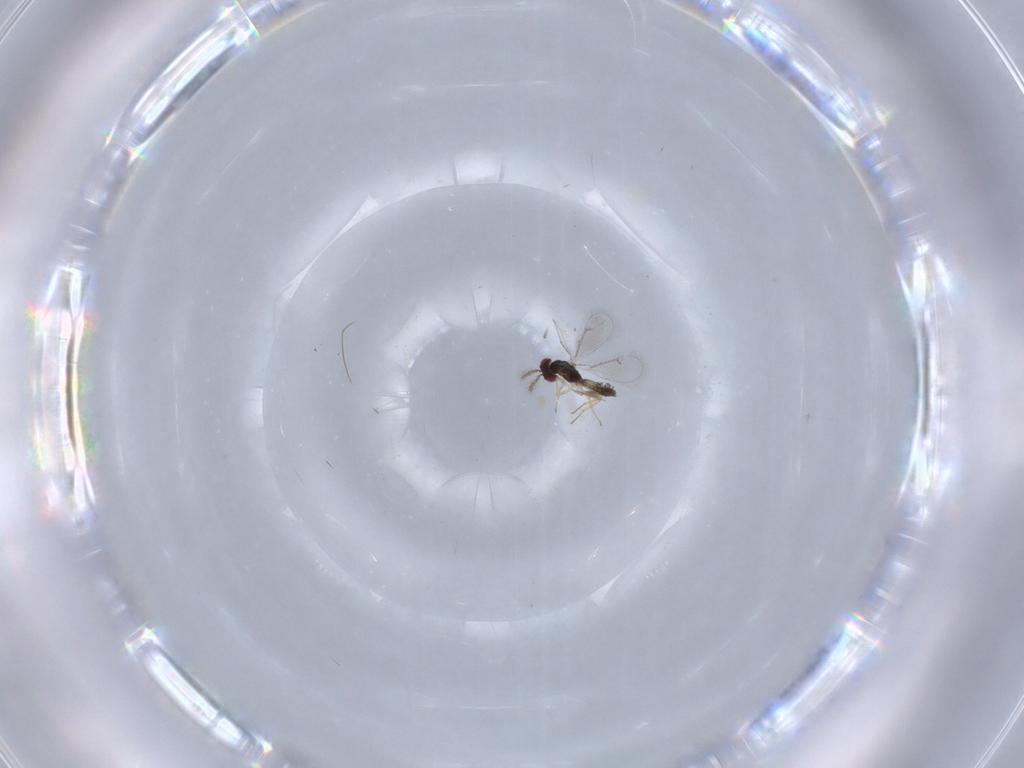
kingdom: Animalia
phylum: Arthropoda
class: Insecta
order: Hymenoptera
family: Eulophidae
